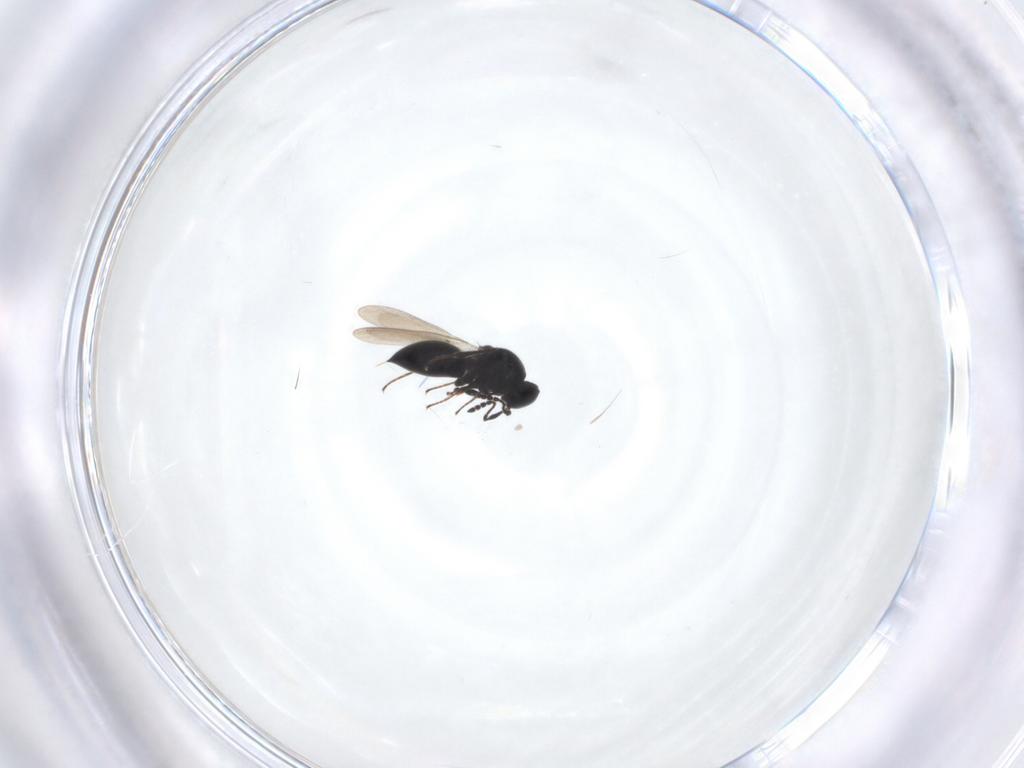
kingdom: Animalia
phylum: Arthropoda
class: Insecta
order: Hymenoptera
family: Platygastridae
